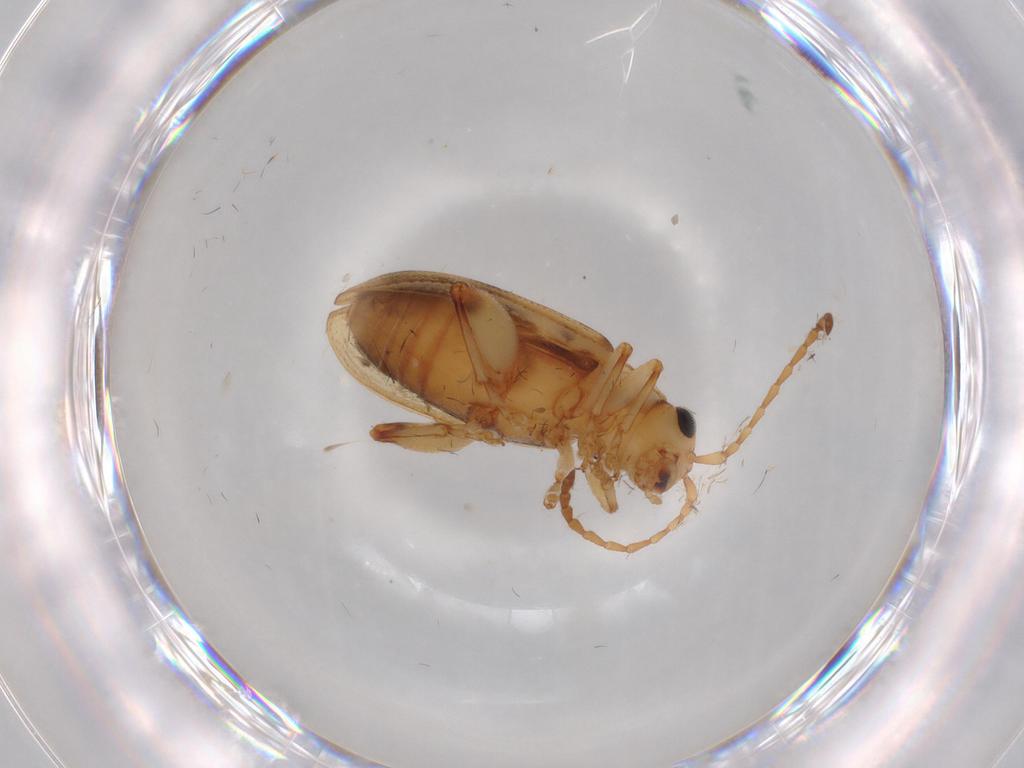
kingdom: Animalia
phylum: Arthropoda
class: Insecta
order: Coleoptera
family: Chrysomelidae
